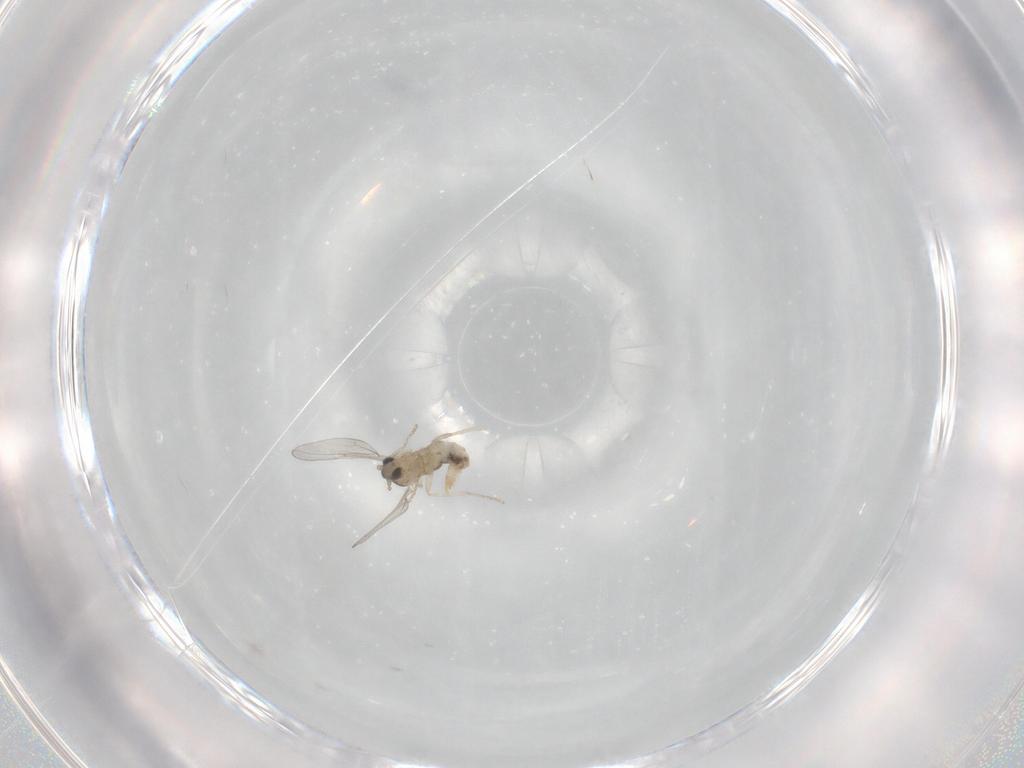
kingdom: Animalia
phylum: Arthropoda
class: Insecta
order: Diptera
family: Cecidomyiidae
